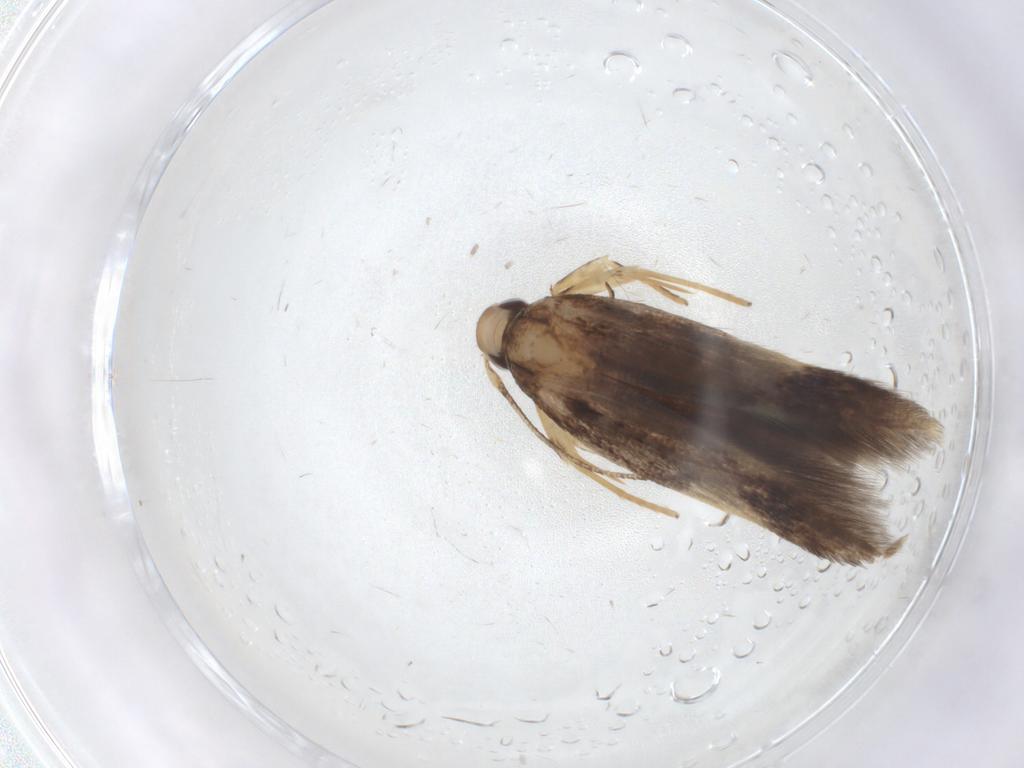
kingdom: Animalia
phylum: Arthropoda
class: Insecta
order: Lepidoptera
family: Cosmopterigidae
